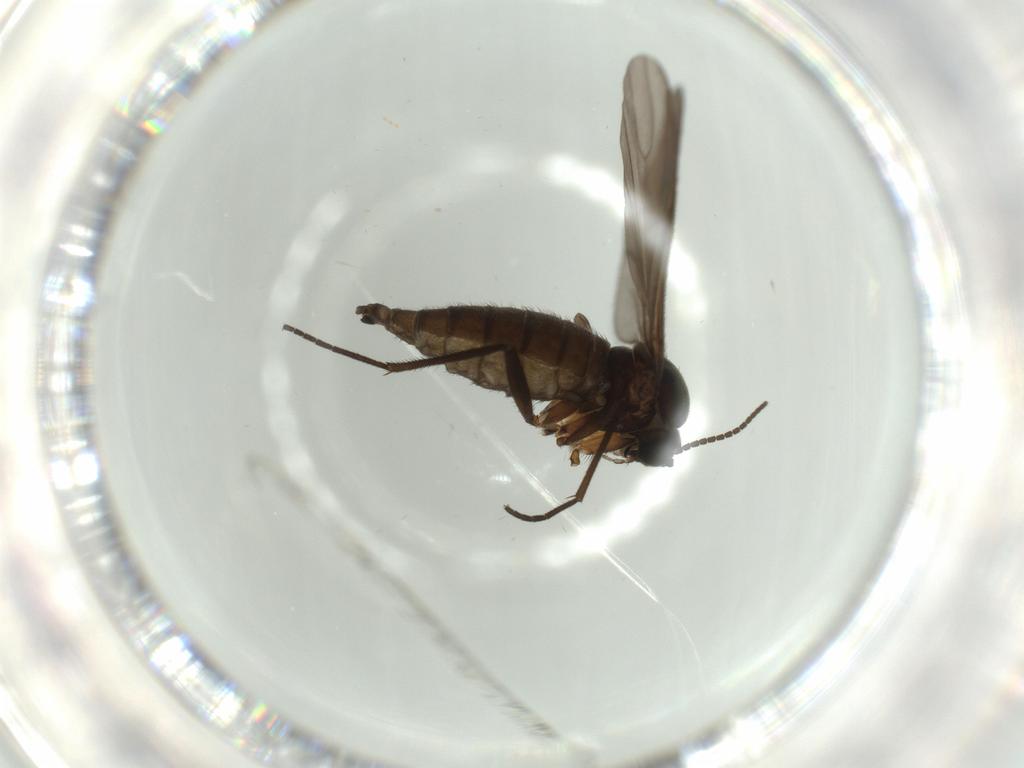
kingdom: Animalia
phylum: Arthropoda
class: Insecta
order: Diptera
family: Sciaridae
